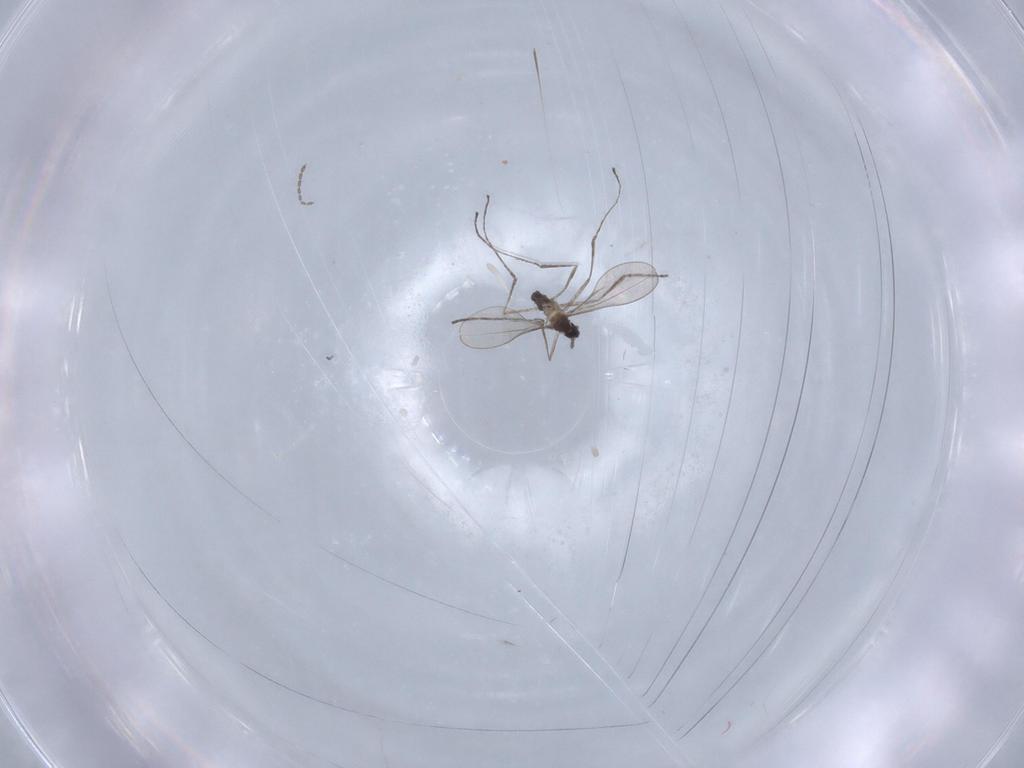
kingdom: Animalia
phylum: Arthropoda
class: Insecta
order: Diptera
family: Cecidomyiidae
